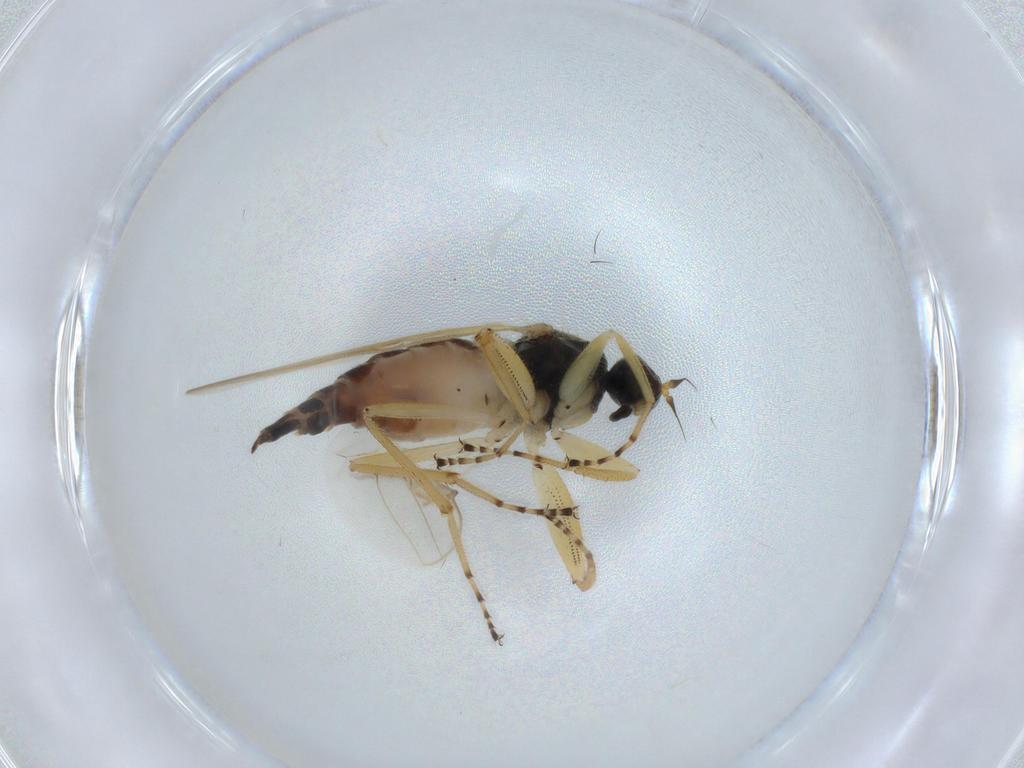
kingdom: Animalia
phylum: Arthropoda
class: Insecta
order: Diptera
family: Hybotidae
